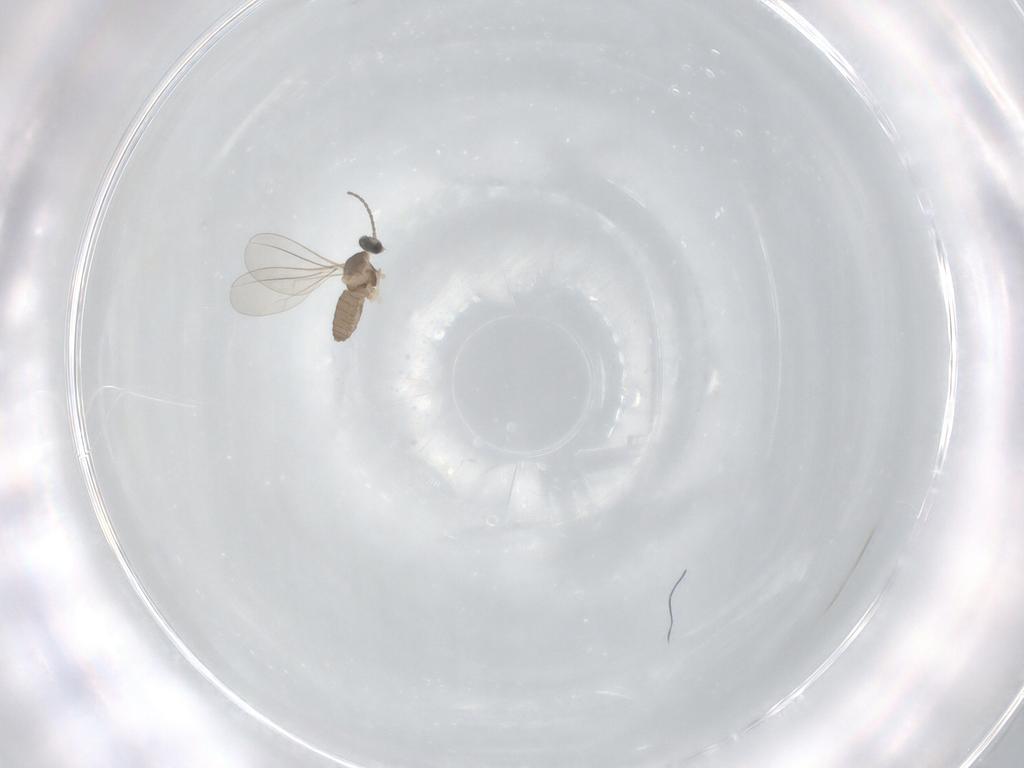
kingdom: Animalia
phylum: Arthropoda
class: Insecta
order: Diptera
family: Cecidomyiidae
